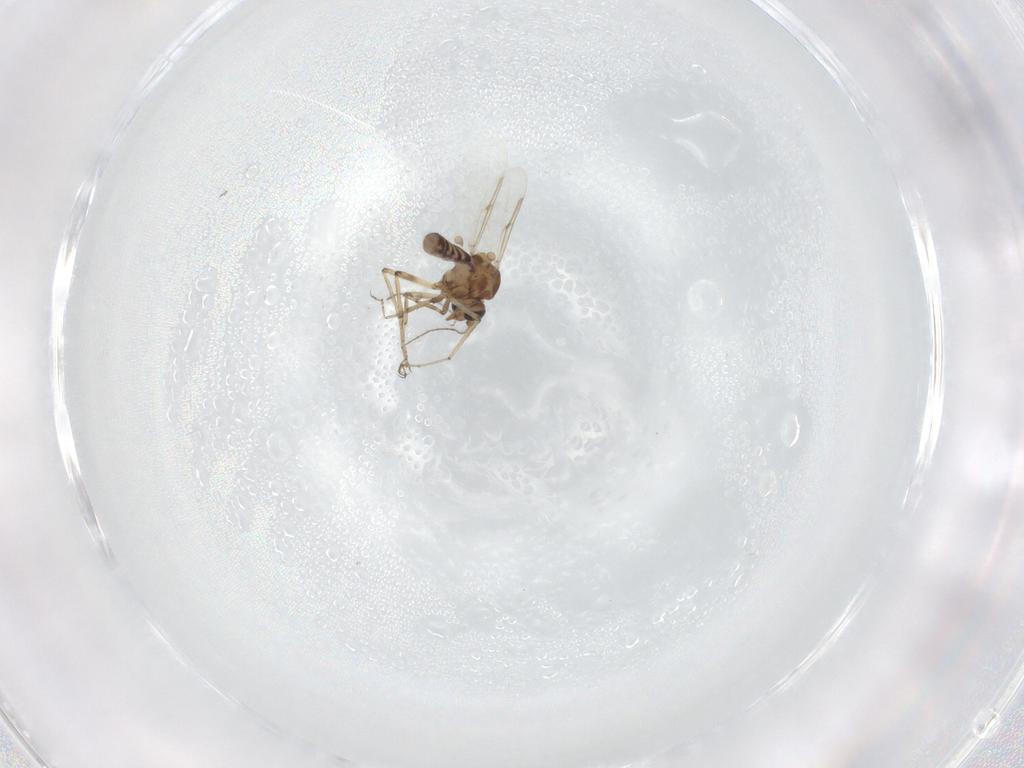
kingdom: Animalia
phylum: Arthropoda
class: Insecta
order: Diptera
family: Ceratopogonidae
